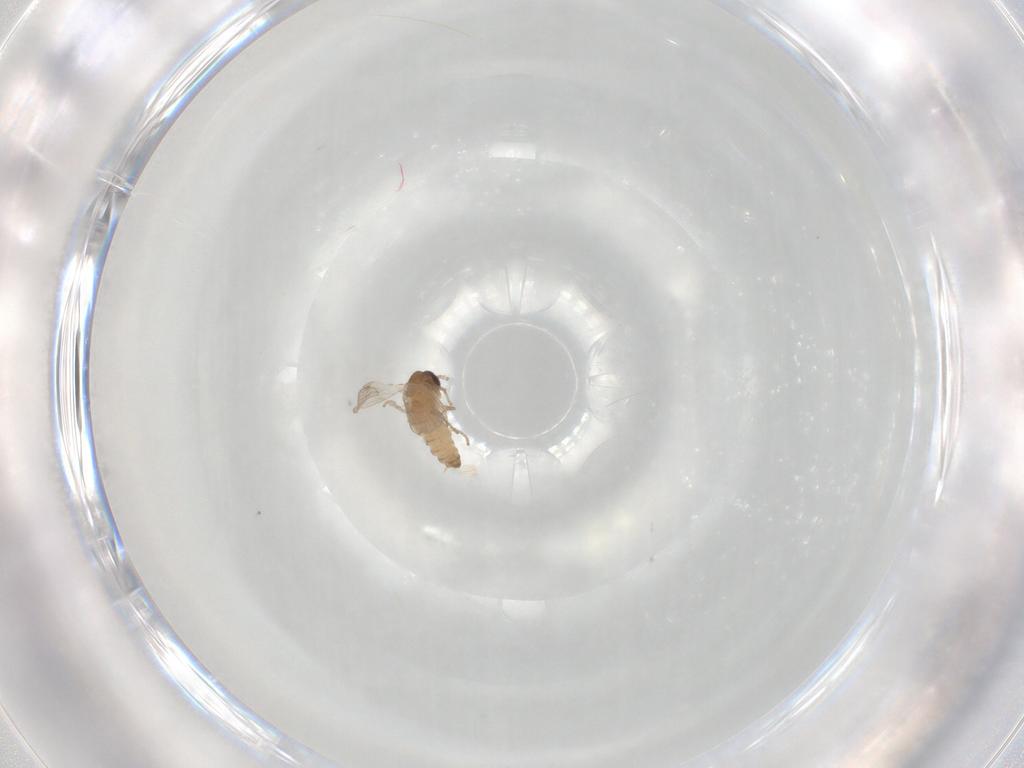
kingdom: Animalia
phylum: Arthropoda
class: Insecta
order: Diptera
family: Psychodidae
